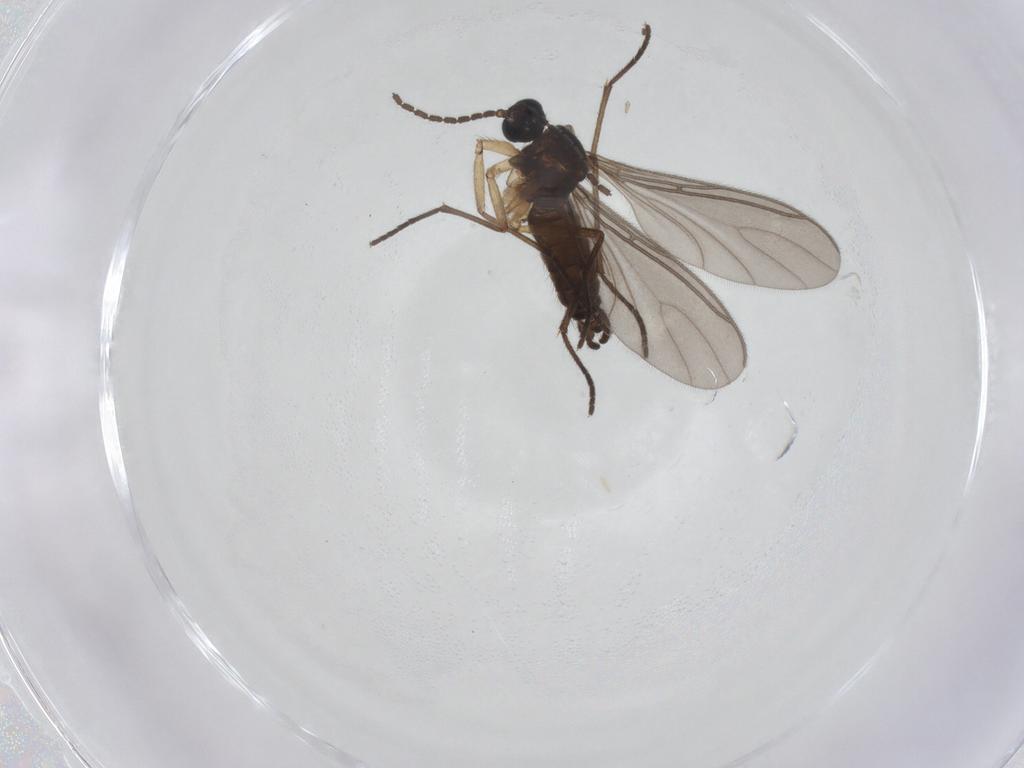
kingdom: Animalia
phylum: Arthropoda
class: Insecta
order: Diptera
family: Sciaridae
